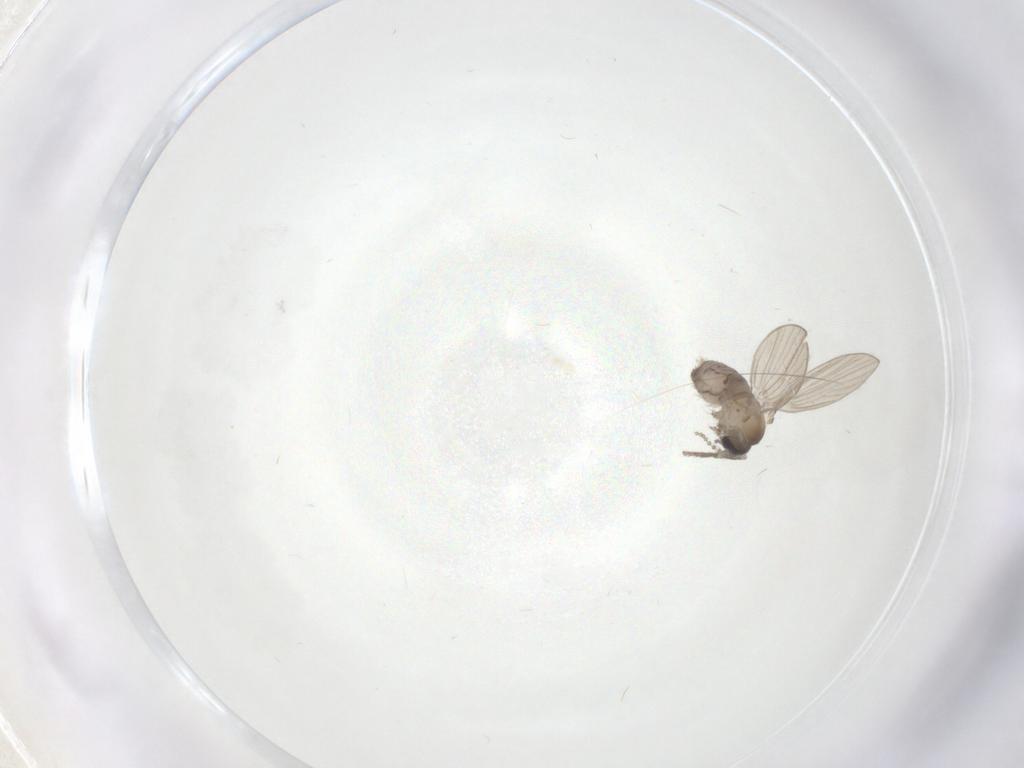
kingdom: Animalia
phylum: Arthropoda
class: Insecta
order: Diptera
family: Psychodidae
